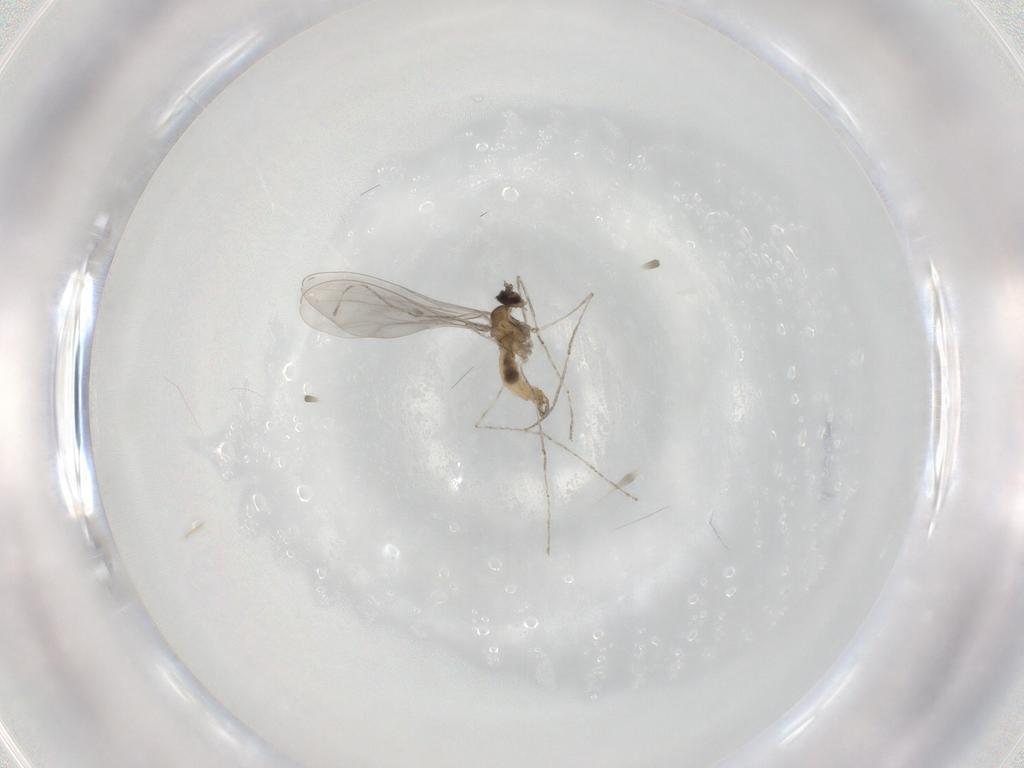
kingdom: Animalia
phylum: Arthropoda
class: Insecta
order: Diptera
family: Cecidomyiidae
